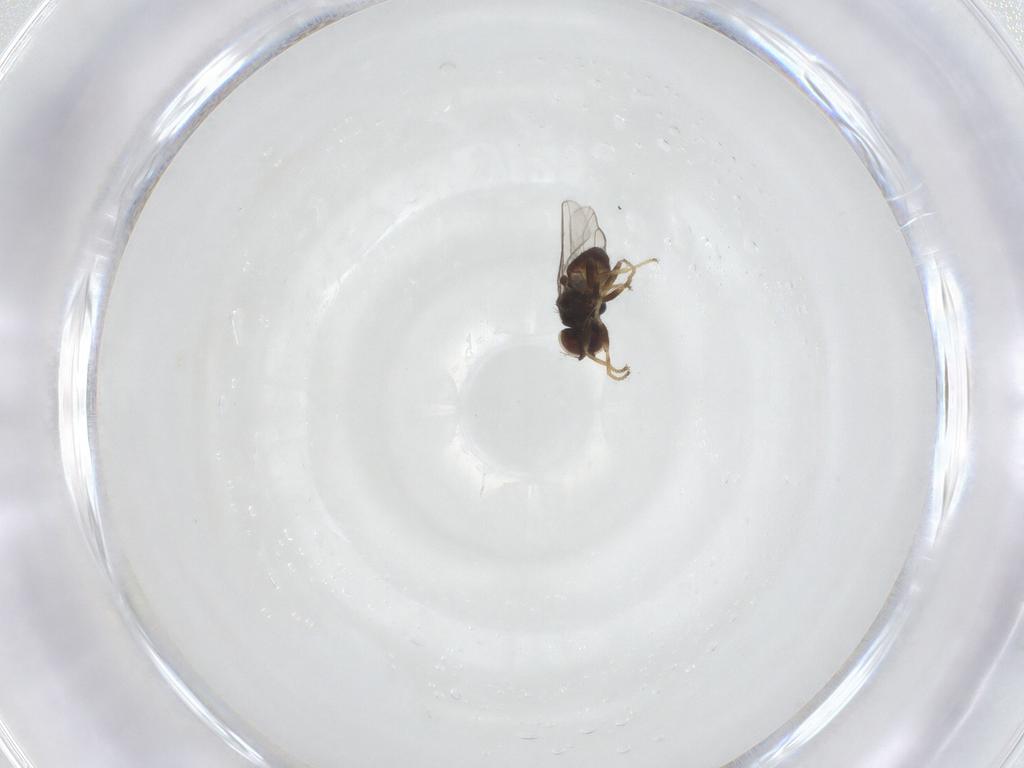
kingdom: Animalia
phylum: Arthropoda
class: Insecta
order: Diptera
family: Chloropidae
